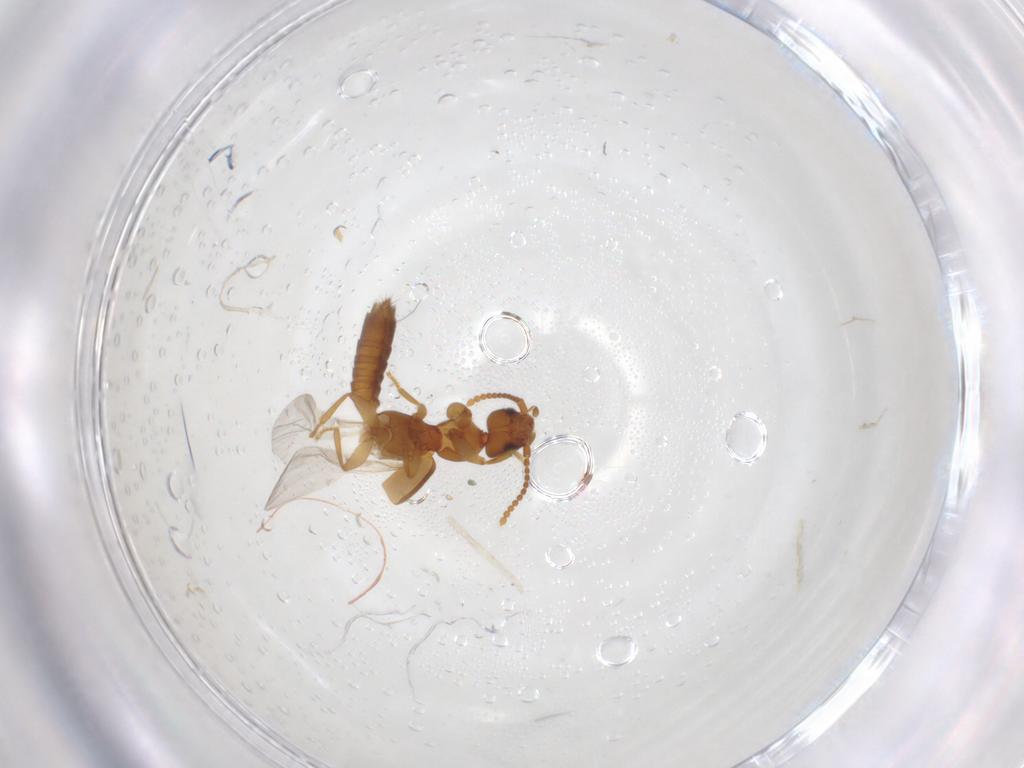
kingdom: Animalia
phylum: Arthropoda
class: Insecta
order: Coleoptera
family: Staphylinidae
